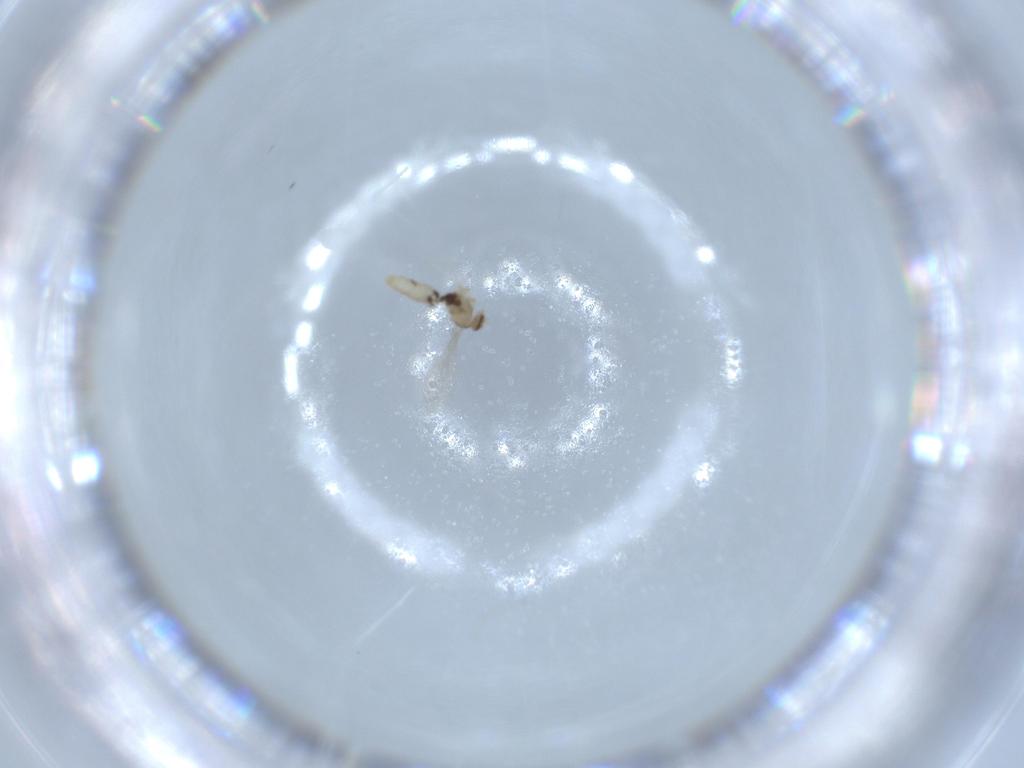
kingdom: Animalia
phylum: Arthropoda
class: Insecta
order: Diptera
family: Cecidomyiidae
